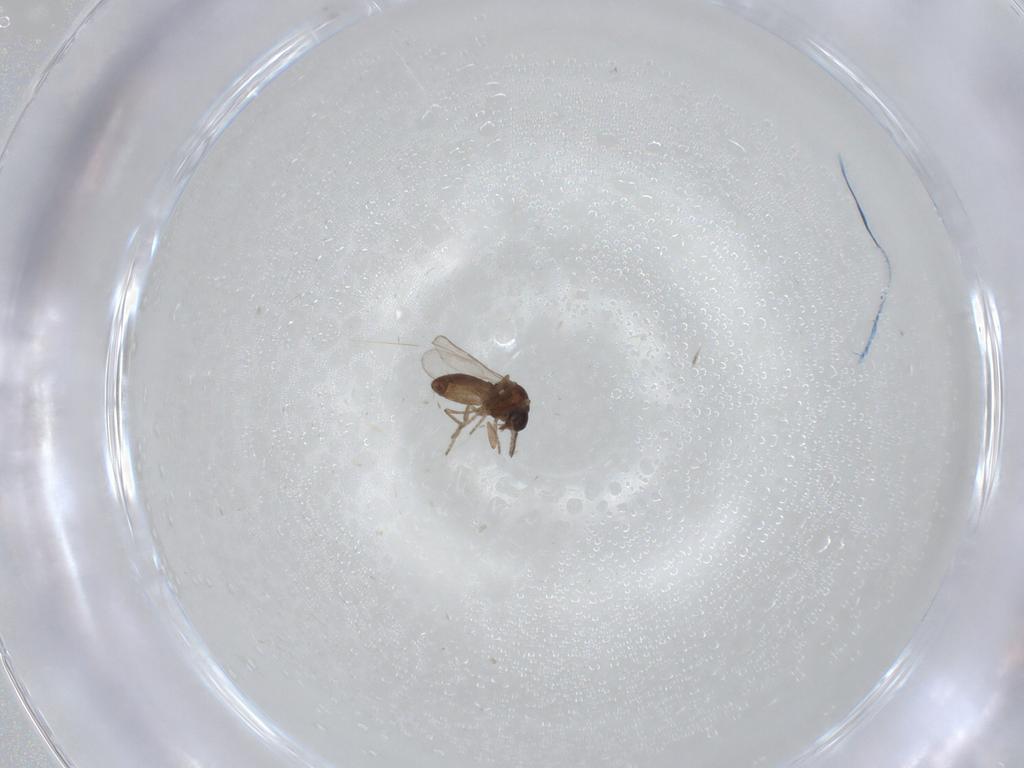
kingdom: Animalia
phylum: Arthropoda
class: Insecta
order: Diptera
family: Ceratopogonidae
